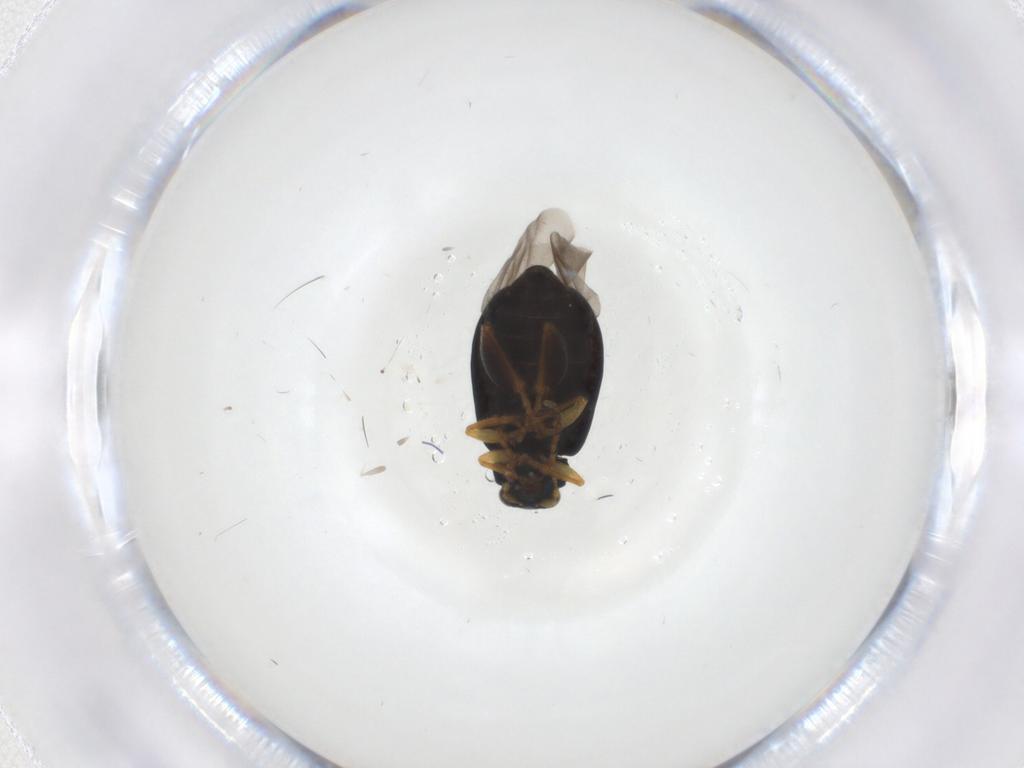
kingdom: Animalia
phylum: Arthropoda
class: Insecta
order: Coleoptera
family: Chrysomelidae
